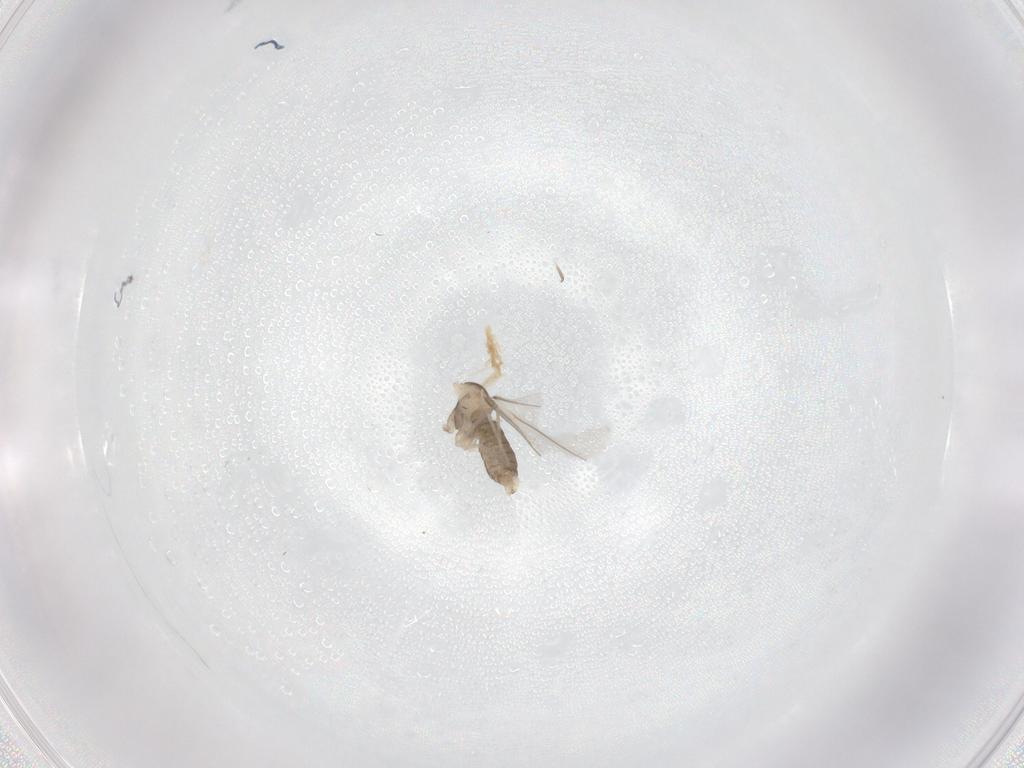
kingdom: Animalia
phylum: Arthropoda
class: Insecta
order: Diptera
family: Cecidomyiidae
